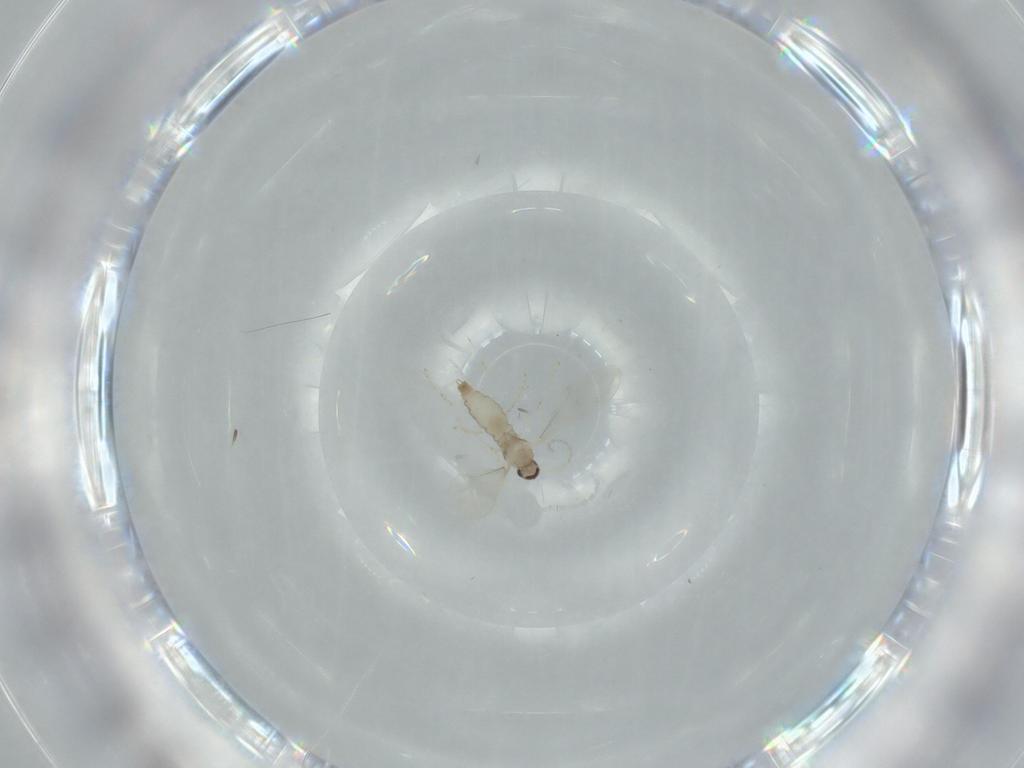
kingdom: Animalia
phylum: Arthropoda
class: Insecta
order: Diptera
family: Cecidomyiidae
